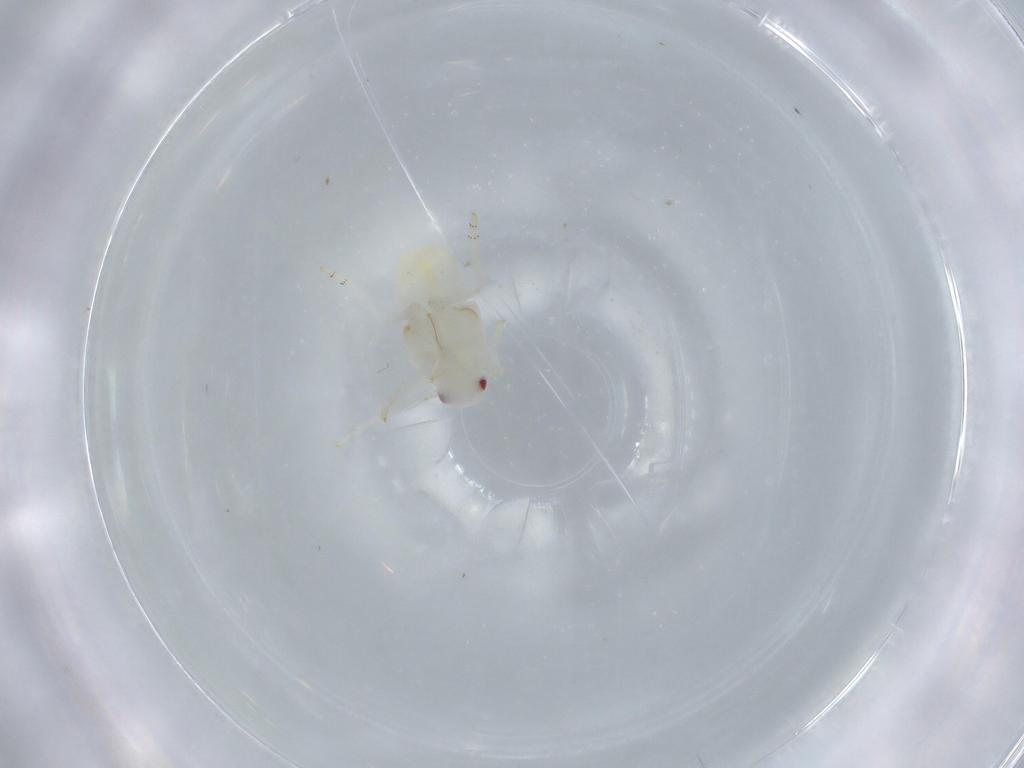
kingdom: Animalia
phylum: Arthropoda
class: Insecta
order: Hemiptera
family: Flatidae
